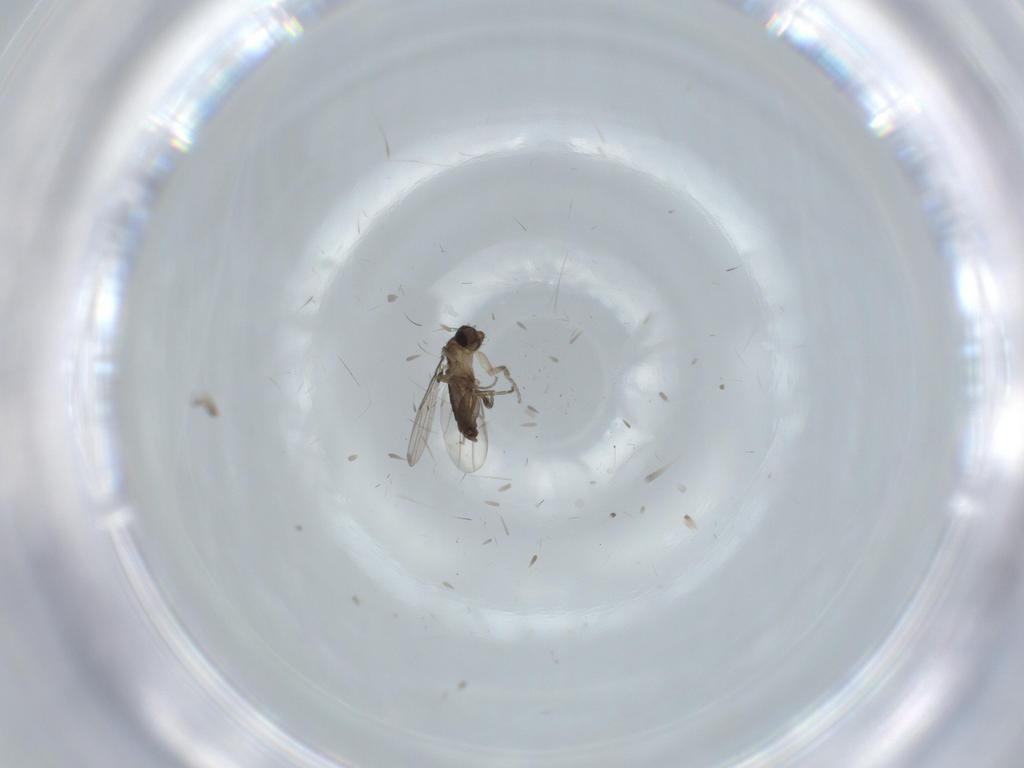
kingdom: Animalia
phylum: Arthropoda
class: Insecta
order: Diptera
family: Phoridae
